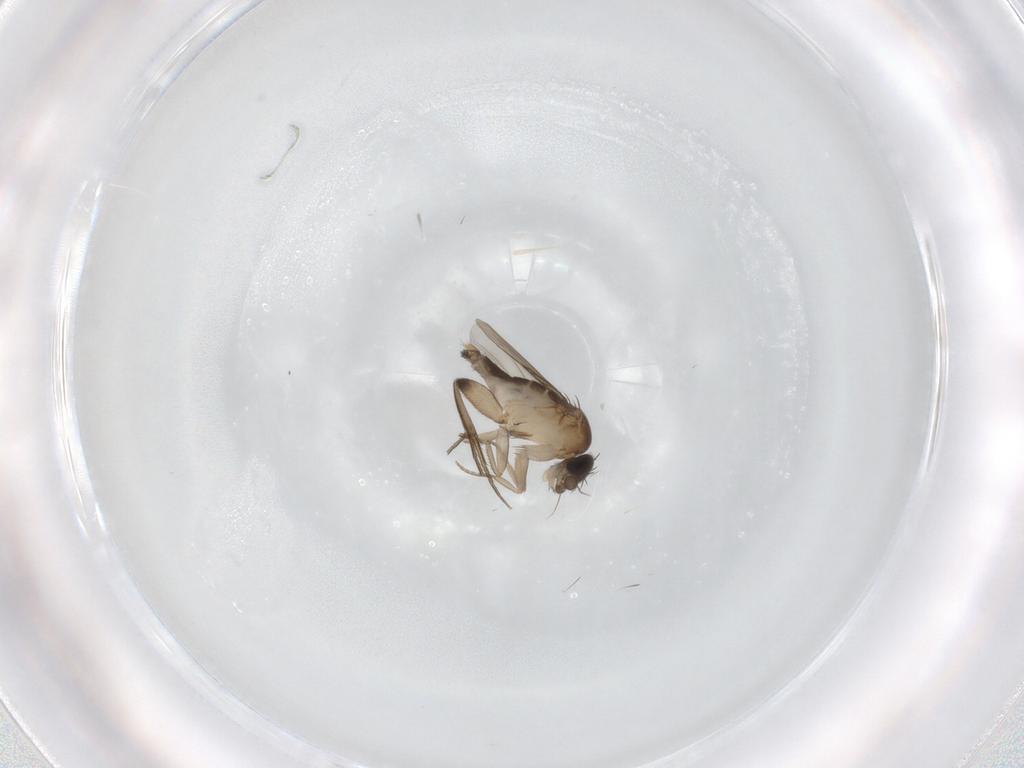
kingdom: Animalia
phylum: Arthropoda
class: Insecta
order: Diptera
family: Phoridae
